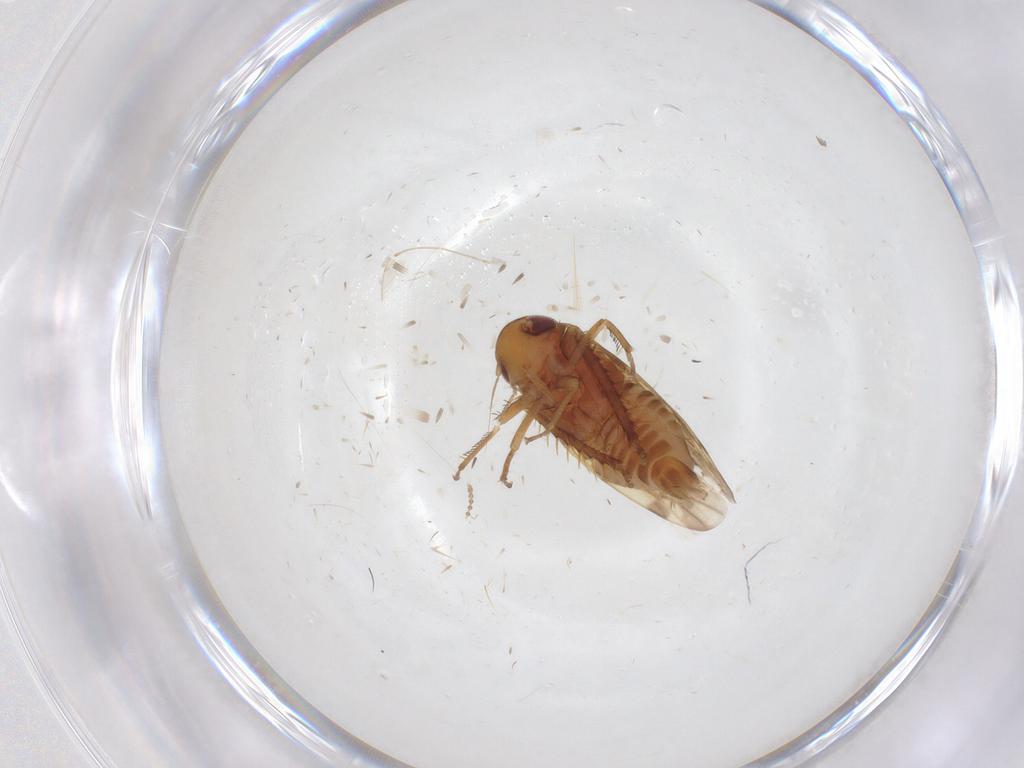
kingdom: Animalia
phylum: Arthropoda
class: Insecta
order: Hemiptera
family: Cicadellidae
